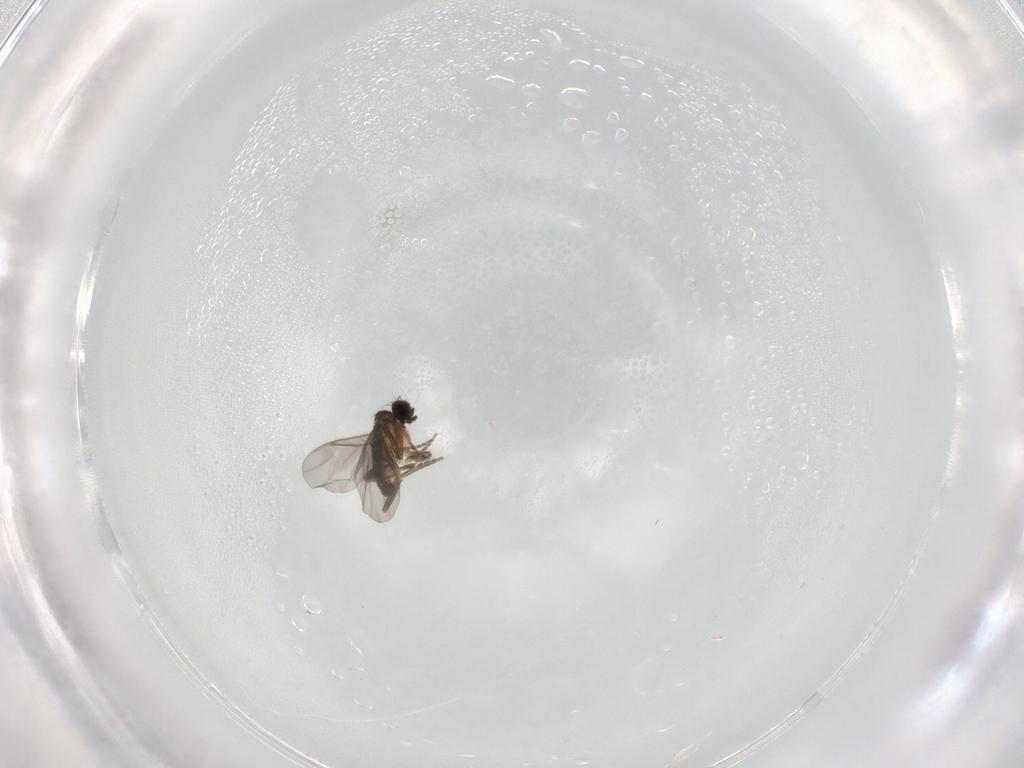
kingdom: Animalia
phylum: Arthropoda
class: Insecta
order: Diptera
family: Dolichopodidae
